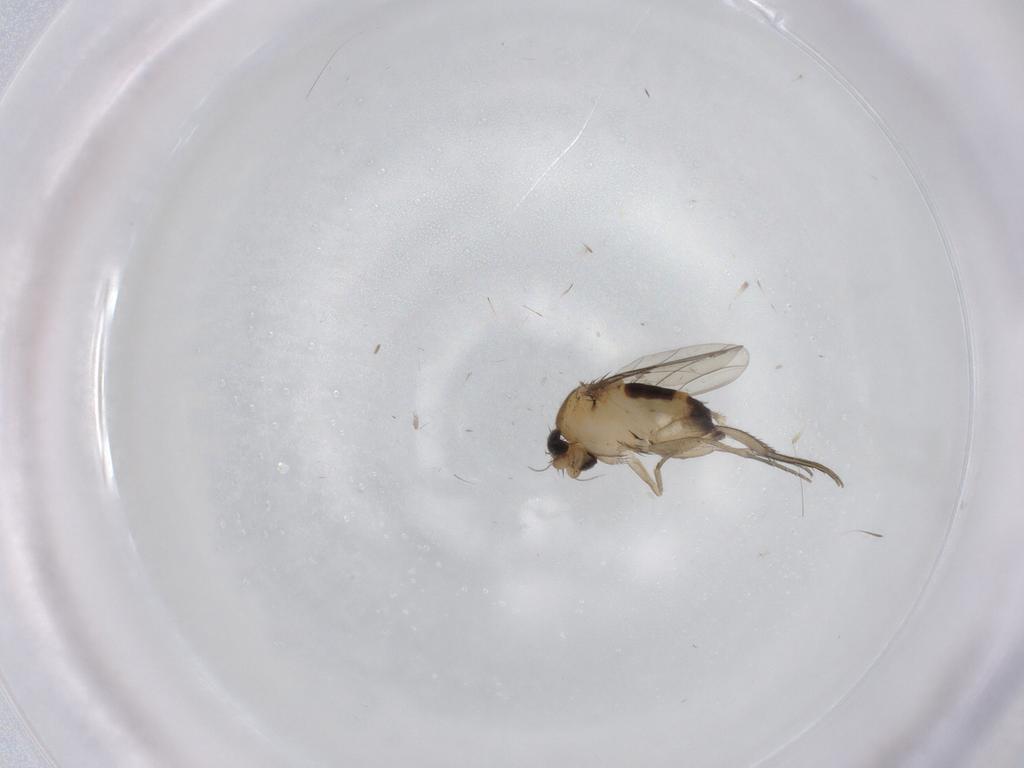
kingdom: Animalia
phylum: Arthropoda
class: Insecta
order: Diptera
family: Phoridae
